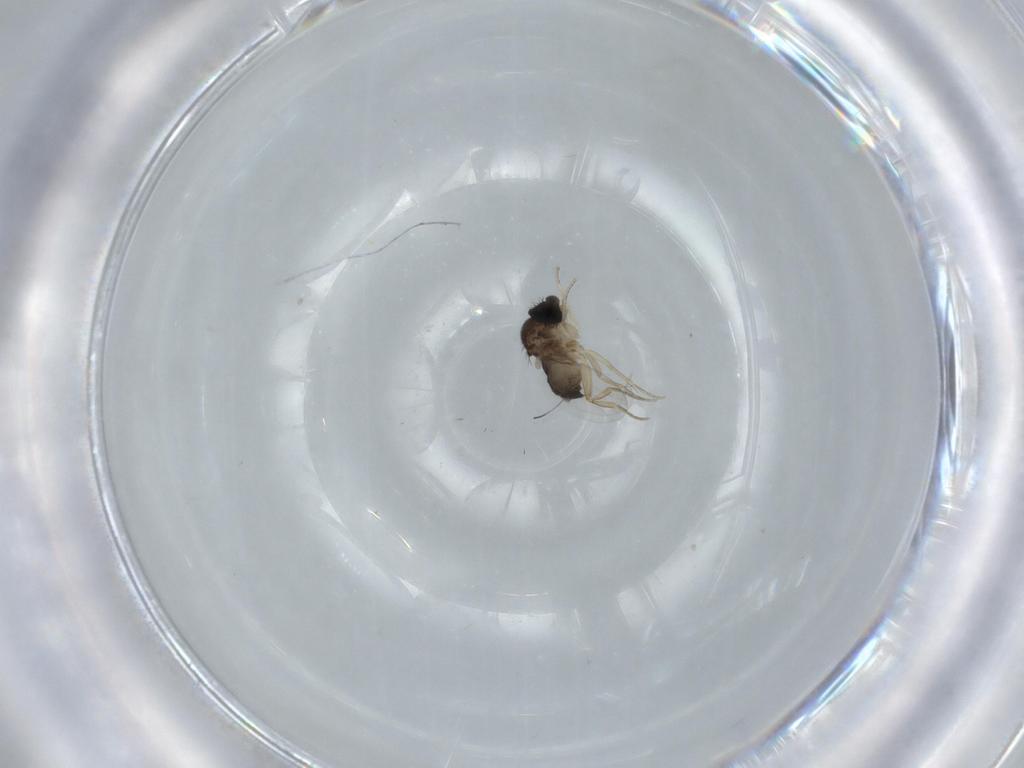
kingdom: Animalia
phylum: Arthropoda
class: Insecta
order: Diptera
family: Phoridae
